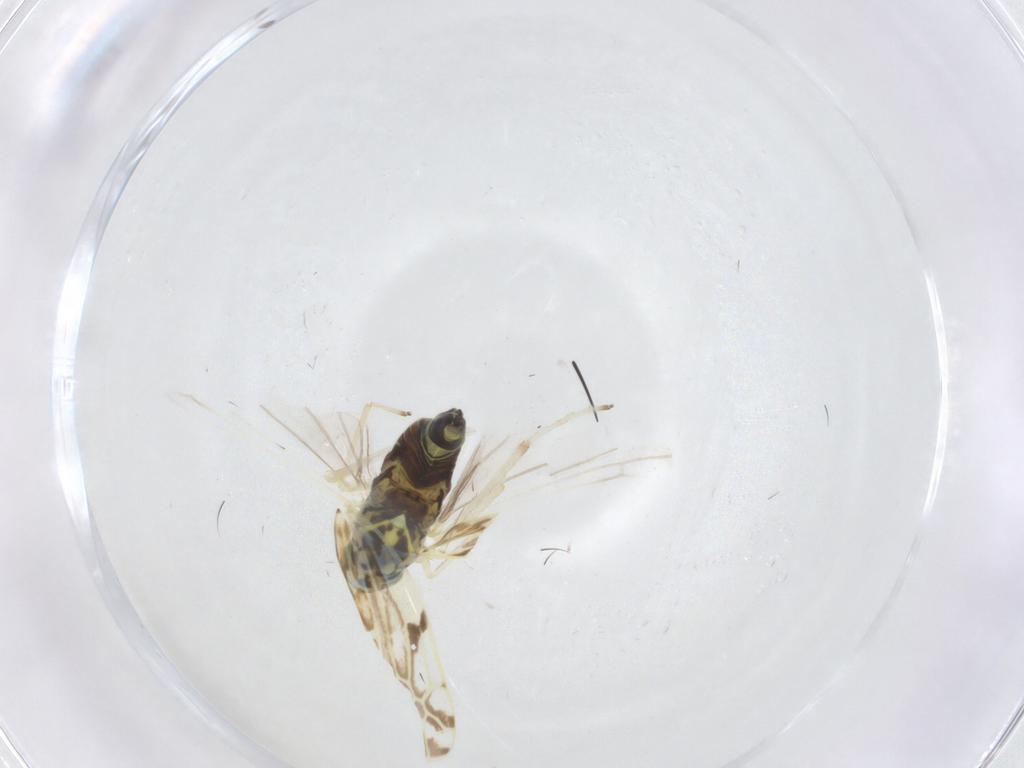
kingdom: Animalia
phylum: Arthropoda
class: Insecta
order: Hemiptera
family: Cicadellidae
